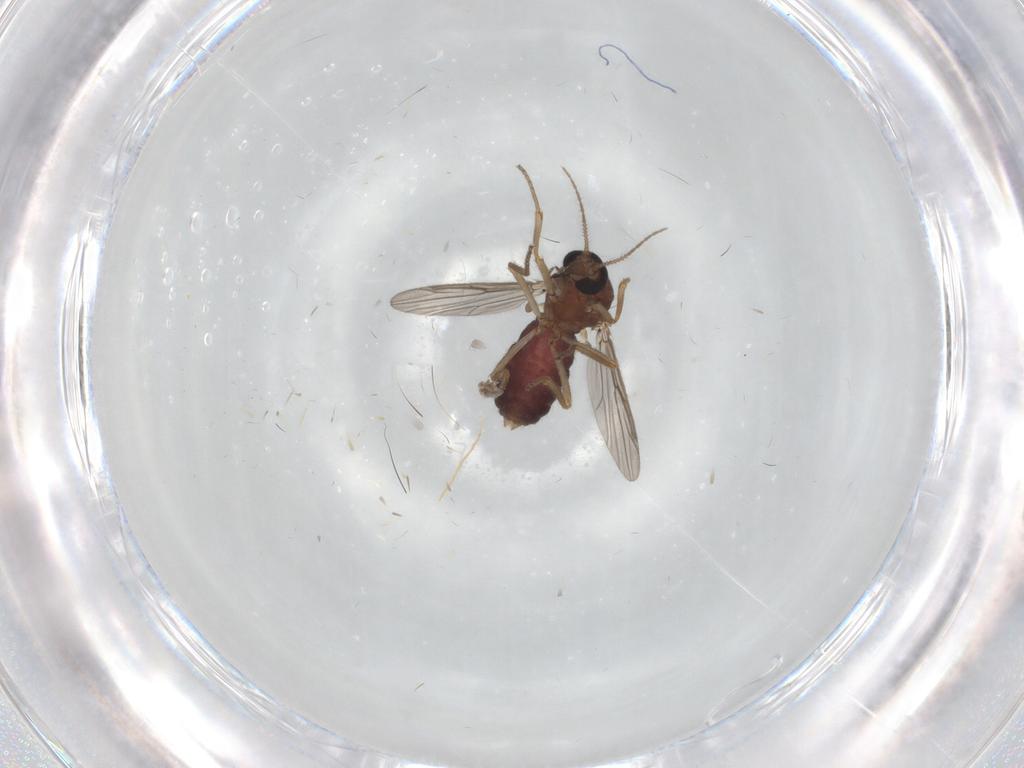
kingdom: Animalia
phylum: Arthropoda
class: Insecta
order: Diptera
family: Ceratopogonidae
